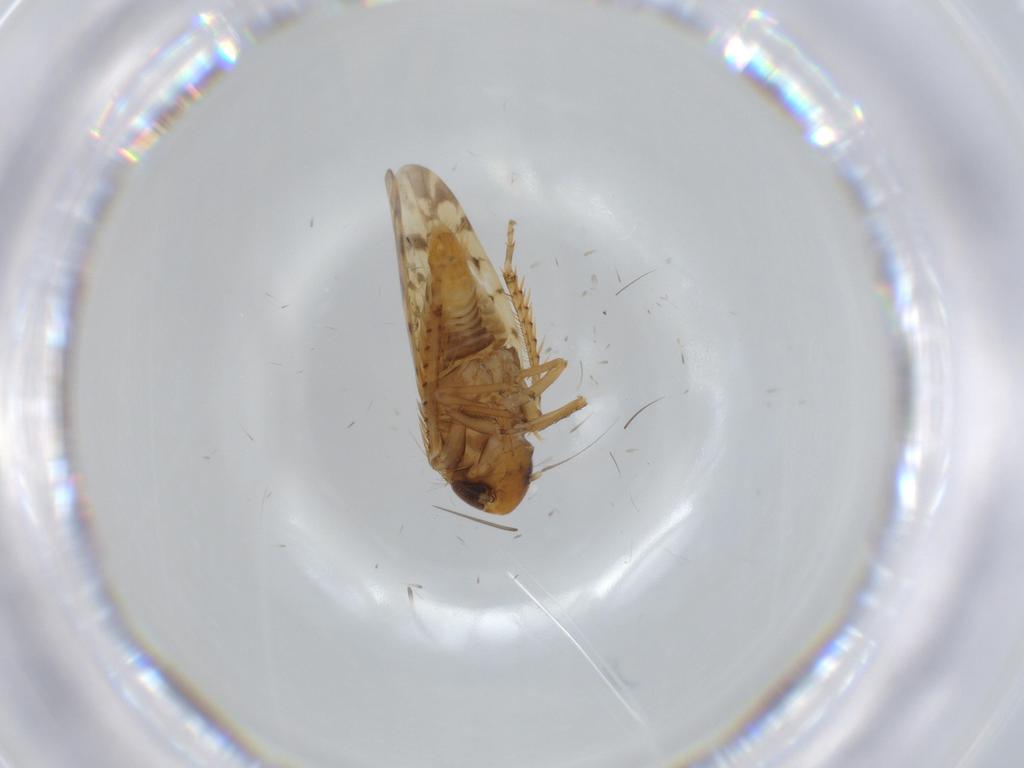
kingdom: Animalia
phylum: Arthropoda
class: Insecta
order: Hemiptera
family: Cicadellidae
